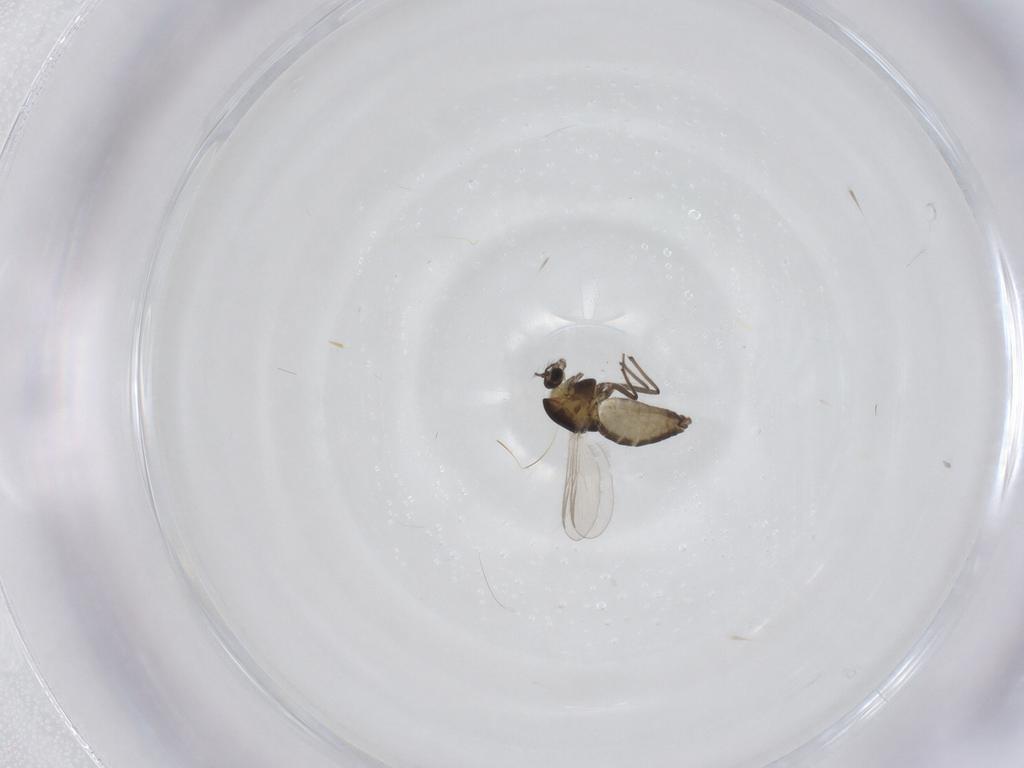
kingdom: Animalia
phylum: Arthropoda
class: Insecta
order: Diptera
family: Chironomidae
